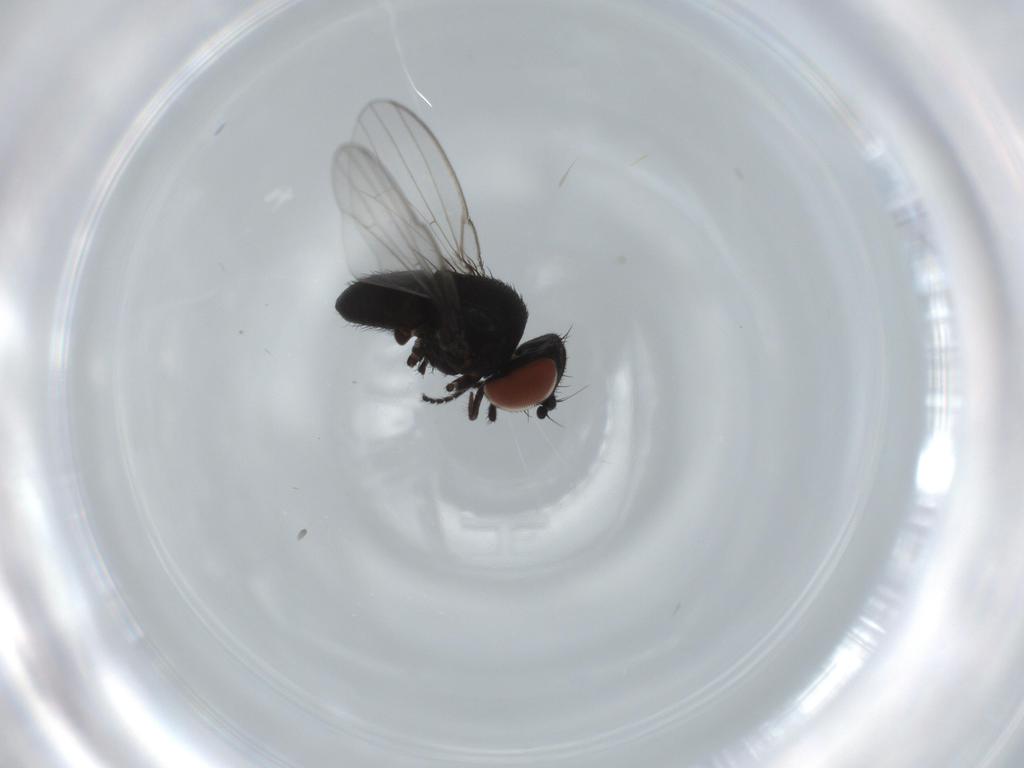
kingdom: Animalia
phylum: Arthropoda
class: Insecta
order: Diptera
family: Milichiidae
